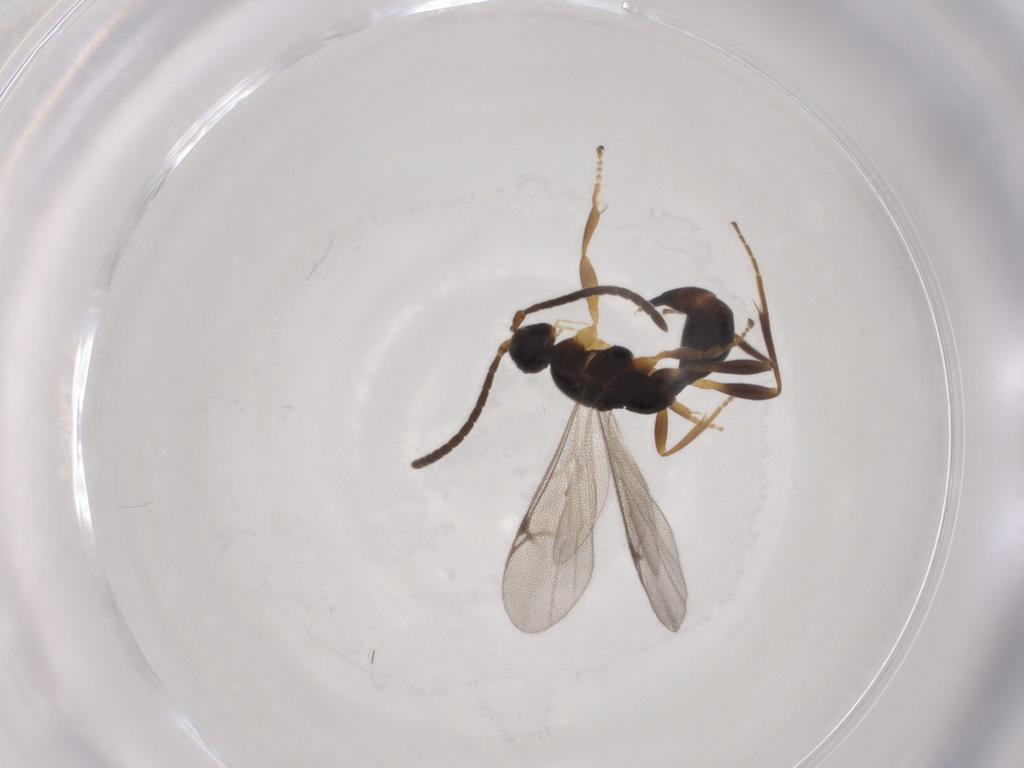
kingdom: Animalia
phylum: Arthropoda
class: Insecta
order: Hymenoptera
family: Proctotrupidae
